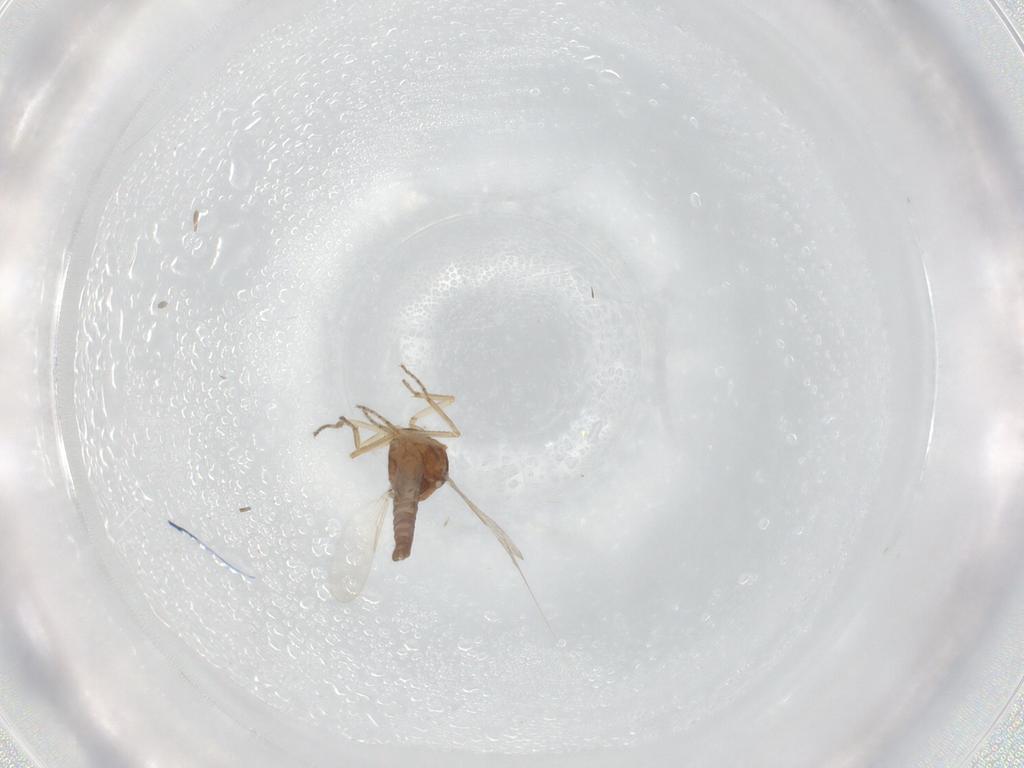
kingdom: Animalia
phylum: Arthropoda
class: Insecta
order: Diptera
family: Ceratopogonidae
